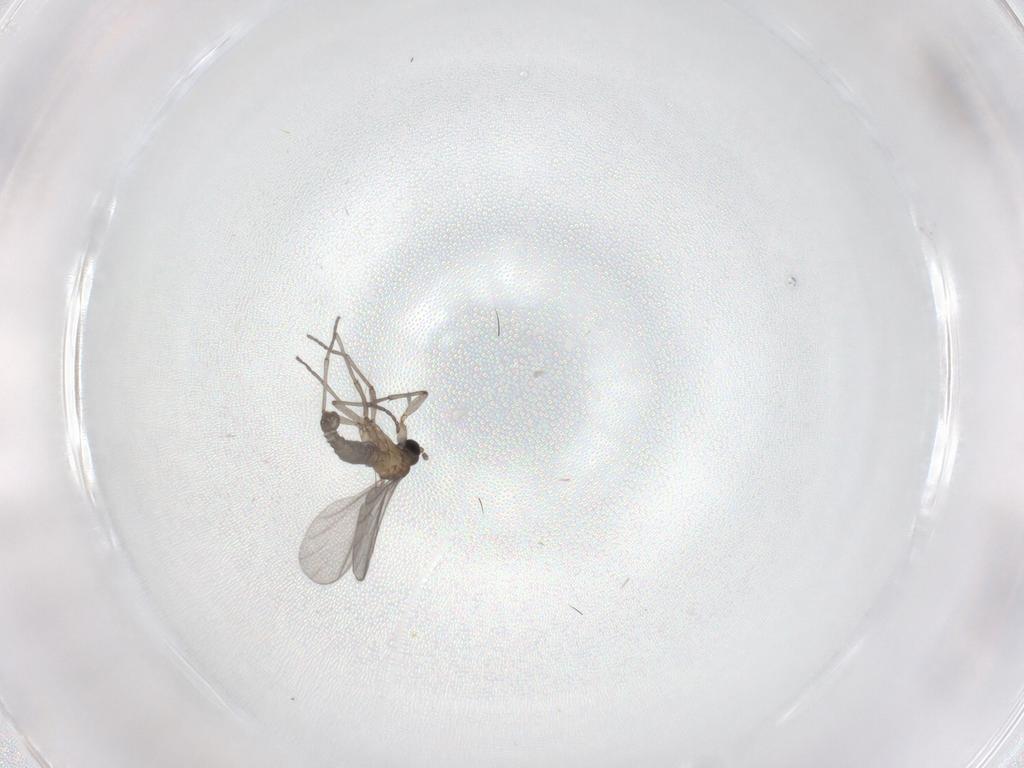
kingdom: Animalia
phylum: Arthropoda
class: Insecta
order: Diptera
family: Sciaridae
